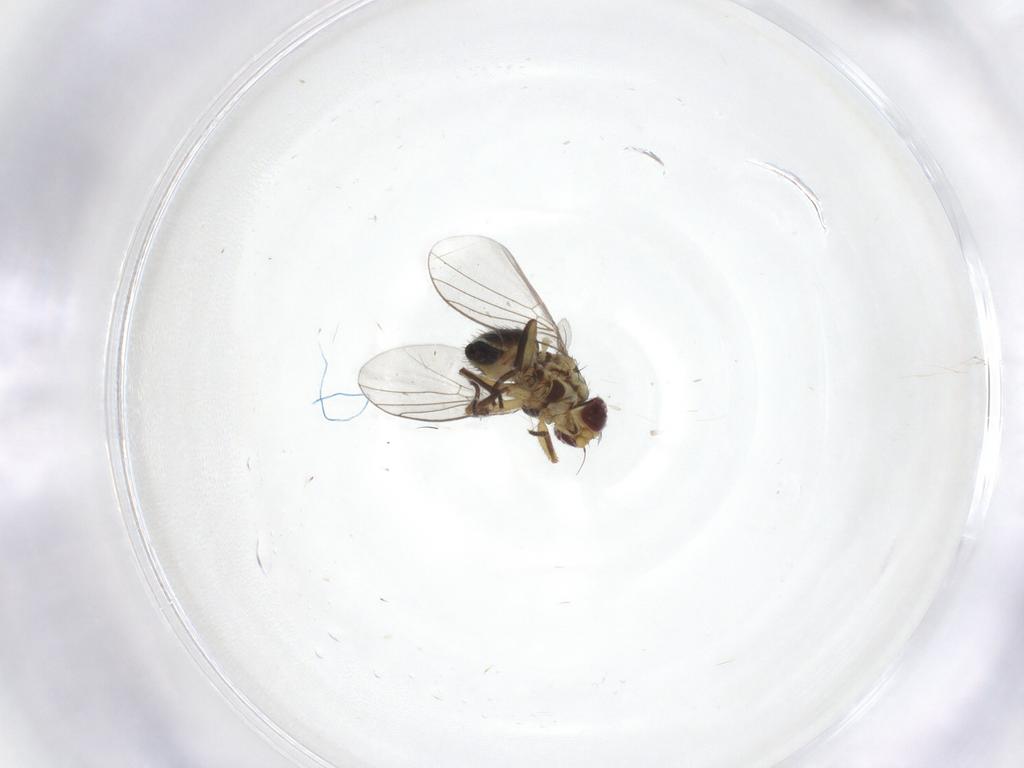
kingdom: Animalia
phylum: Arthropoda
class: Insecta
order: Diptera
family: Agromyzidae
